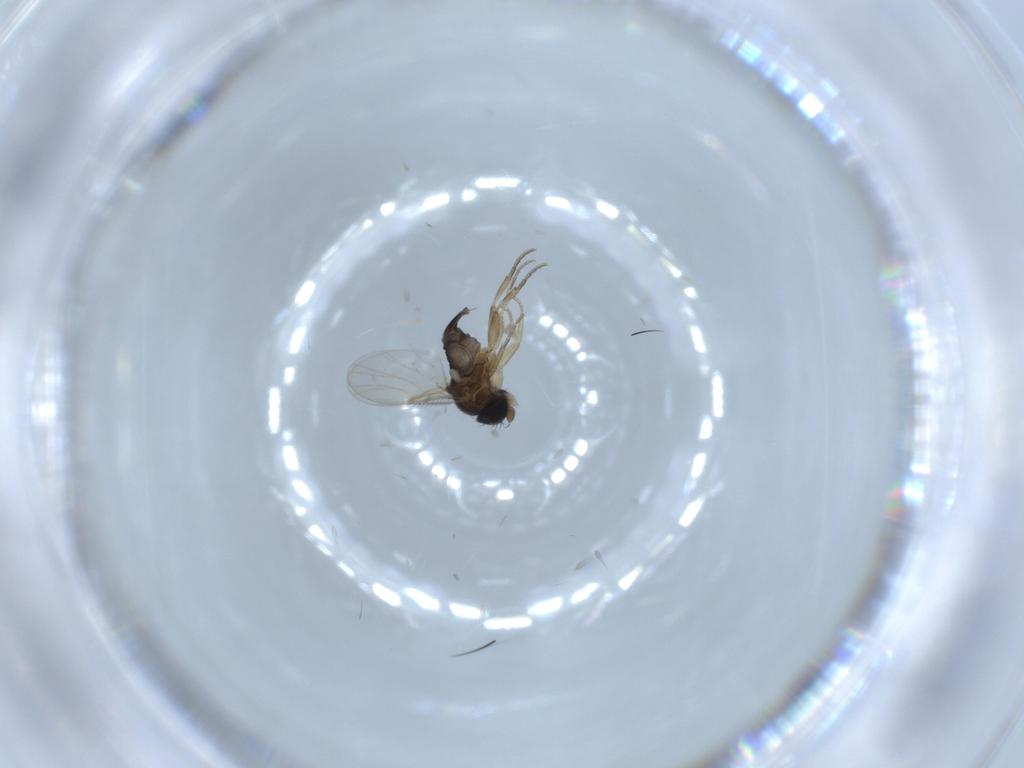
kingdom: Animalia
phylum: Arthropoda
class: Insecta
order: Diptera
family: Phoridae
